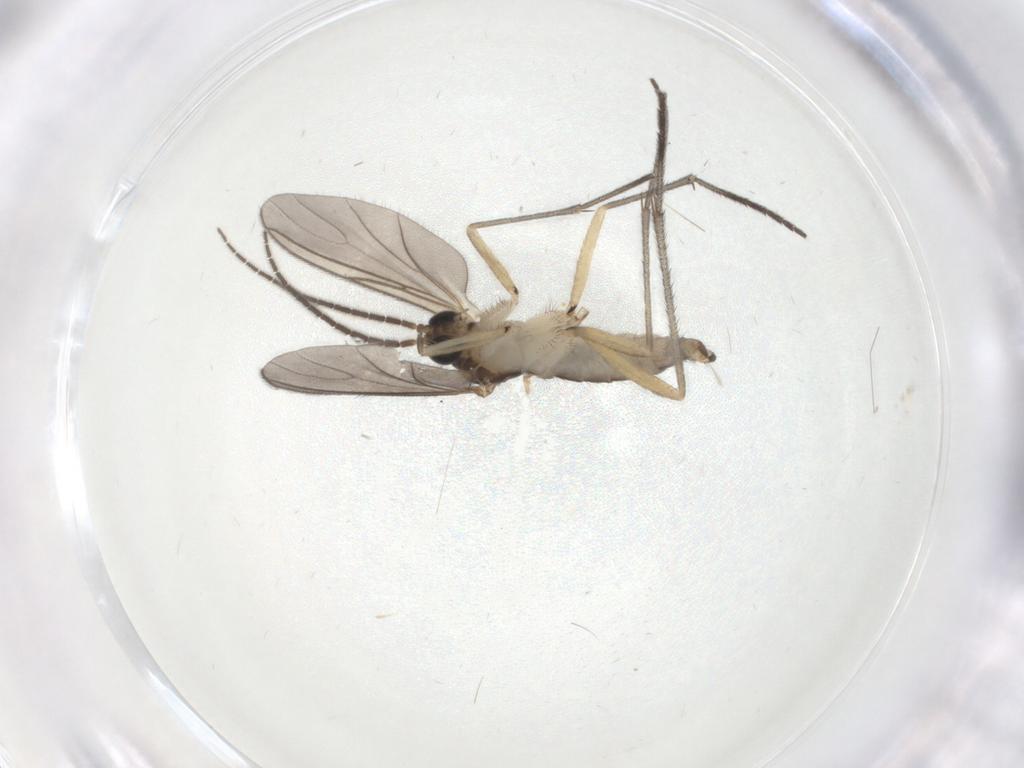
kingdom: Animalia
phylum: Arthropoda
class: Insecta
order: Diptera
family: Sciaridae
